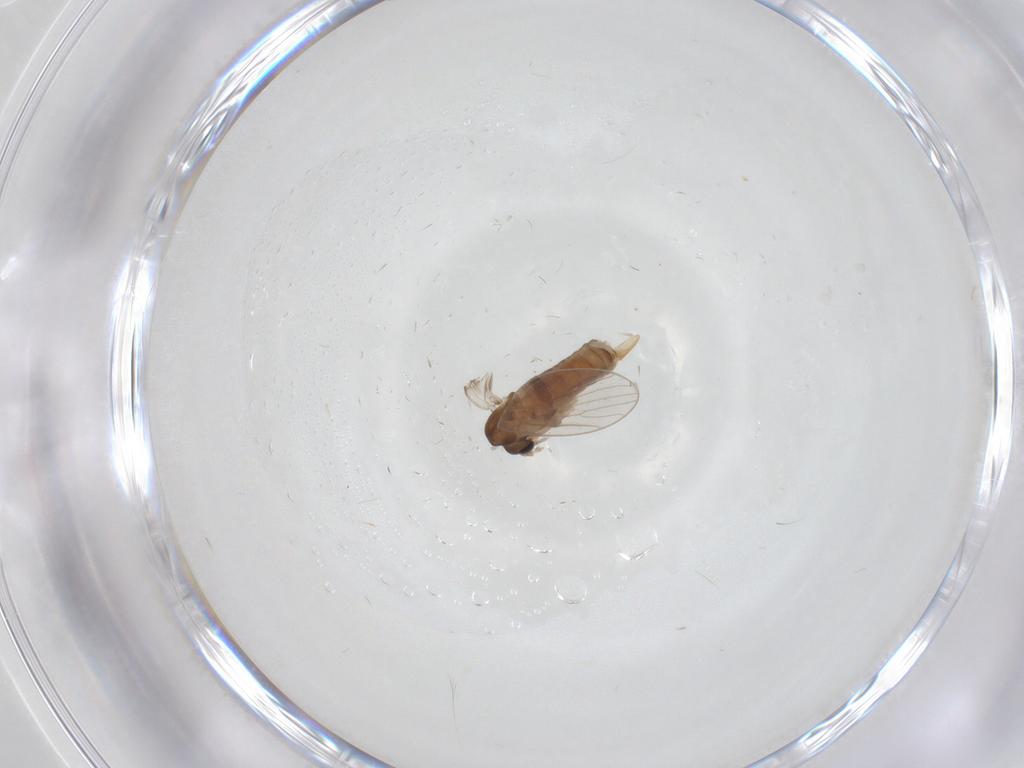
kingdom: Animalia
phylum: Arthropoda
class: Insecta
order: Diptera
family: Psychodidae
